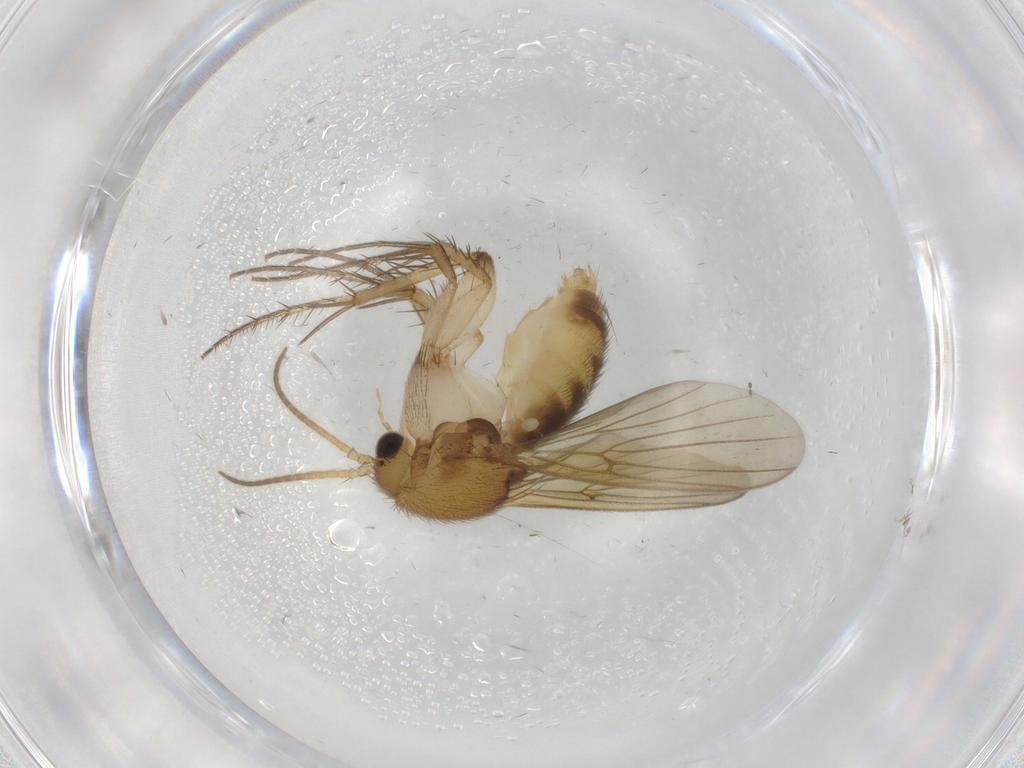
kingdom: Animalia
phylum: Arthropoda
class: Insecta
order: Diptera
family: Mycetophilidae
